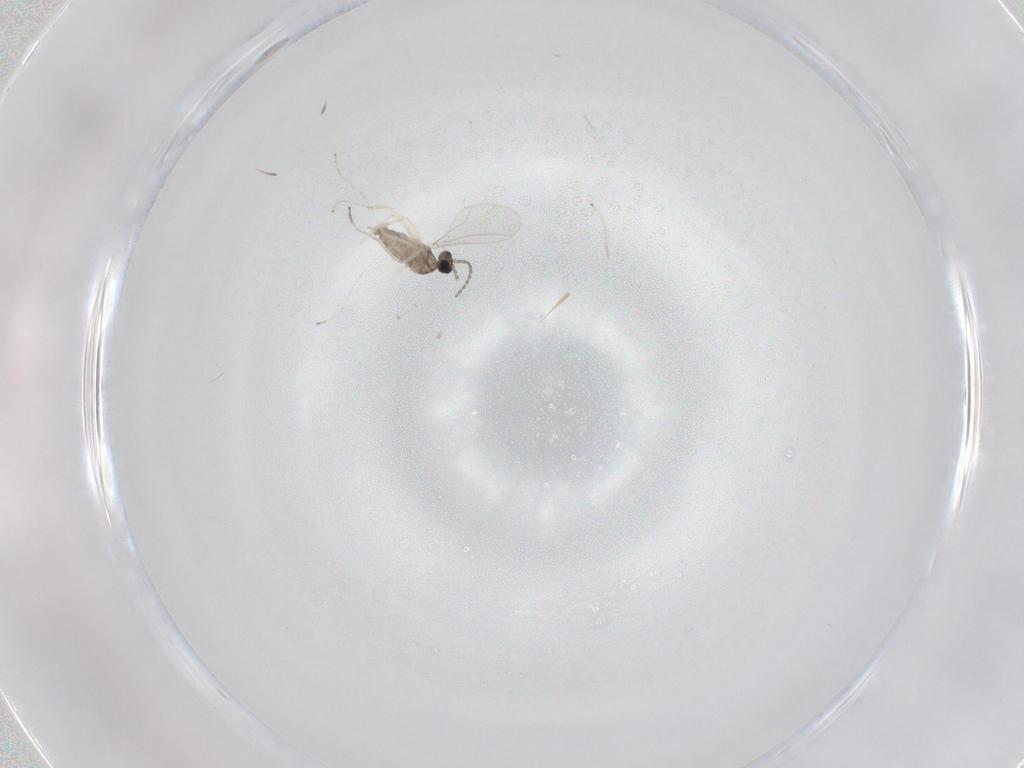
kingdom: Animalia
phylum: Arthropoda
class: Insecta
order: Diptera
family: Cecidomyiidae
